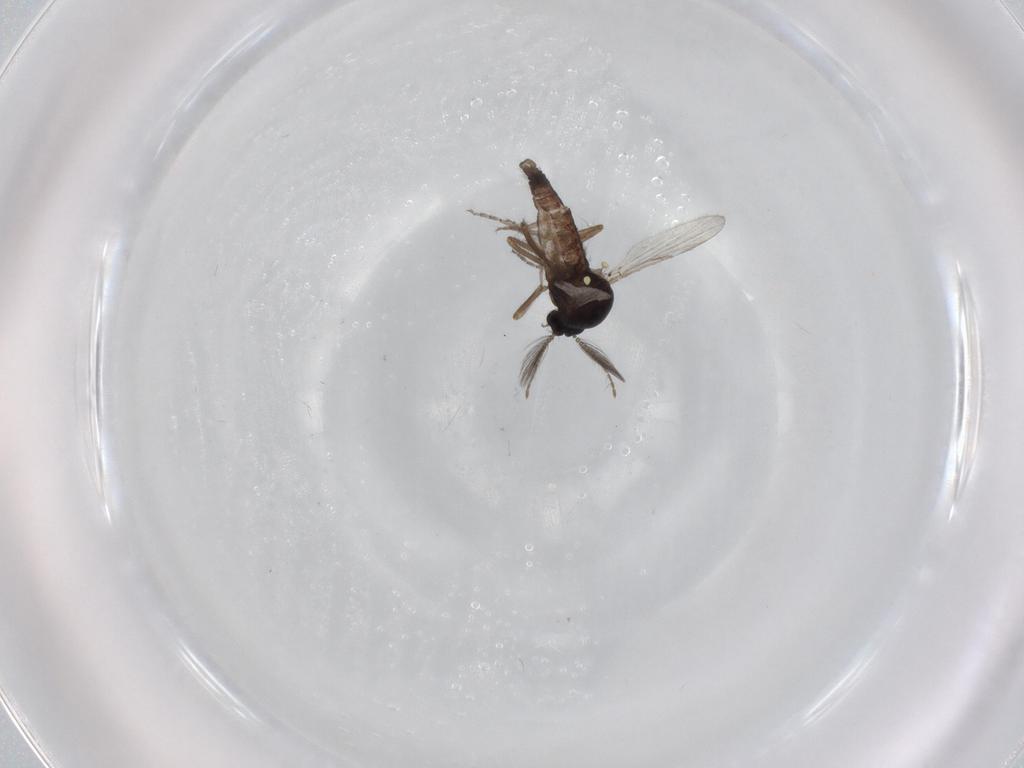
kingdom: Animalia
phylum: Arthropoda
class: Insecta
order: Diptera
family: Ceratopogonidae
